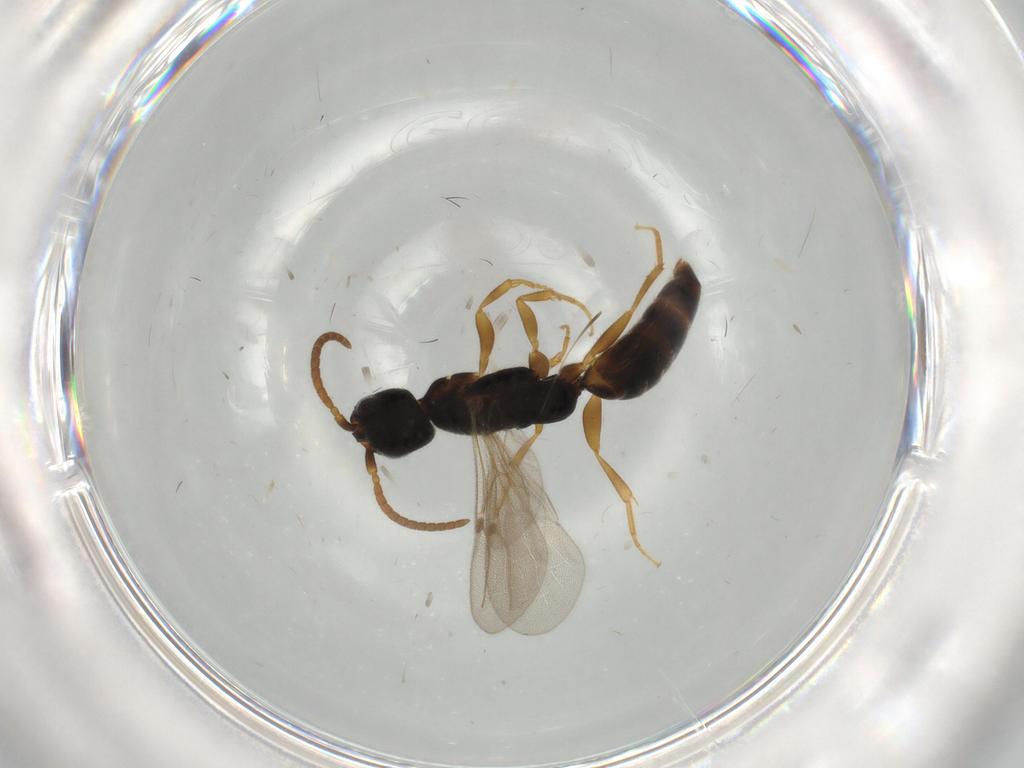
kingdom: Animalia
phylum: Arthropoda
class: Insecta
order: Hymenoptera
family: Bethylidae
